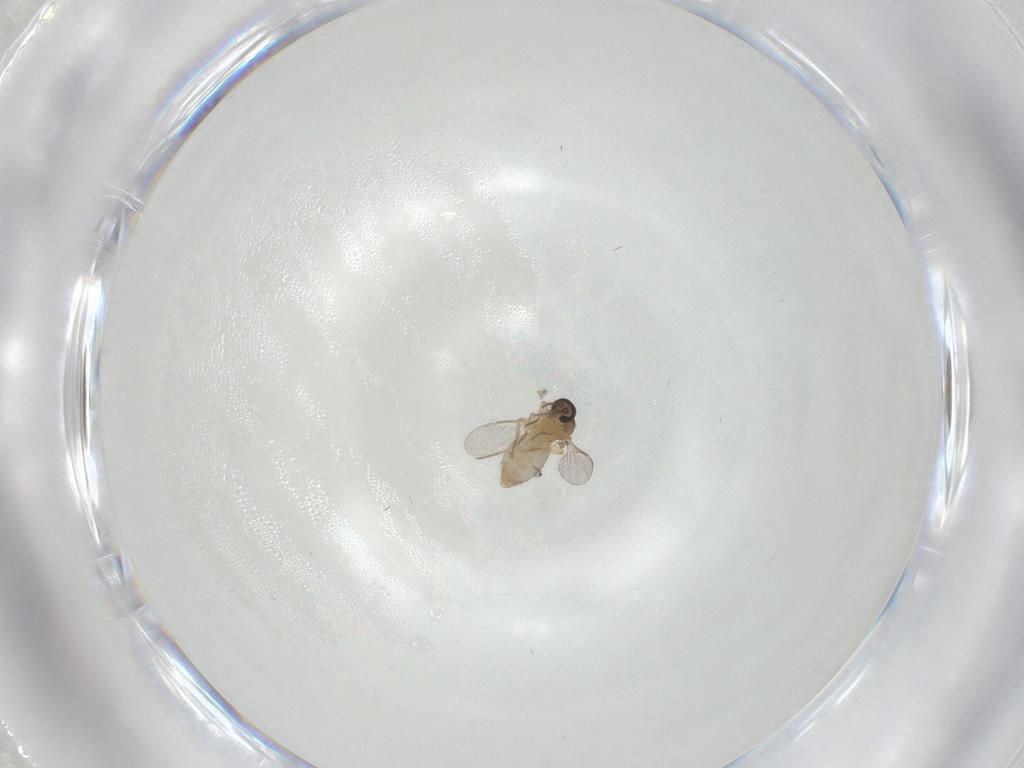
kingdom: Animalia
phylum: Arthropoda
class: Insecta
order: Diptera
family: Ceratopogonidae
